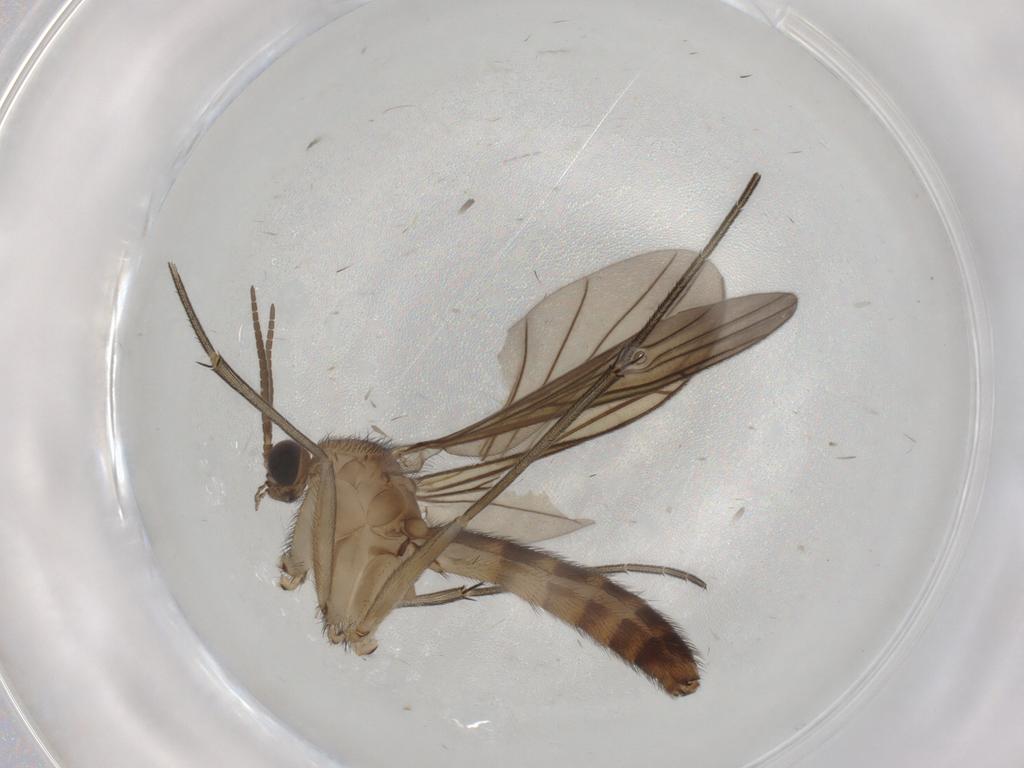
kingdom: Animalia
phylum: Arthropoda
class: Insecta
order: Diptera
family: Keroplatidae
